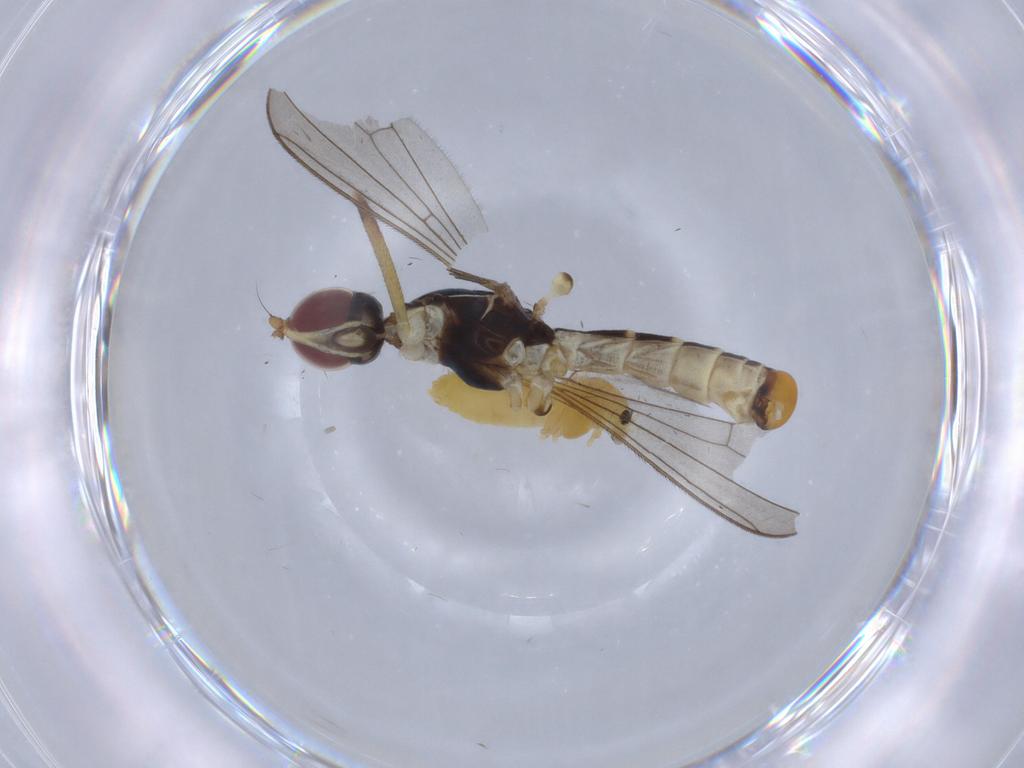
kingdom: Animalia
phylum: Arthropoda
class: Insecta
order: Diptera
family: Micropezidae
